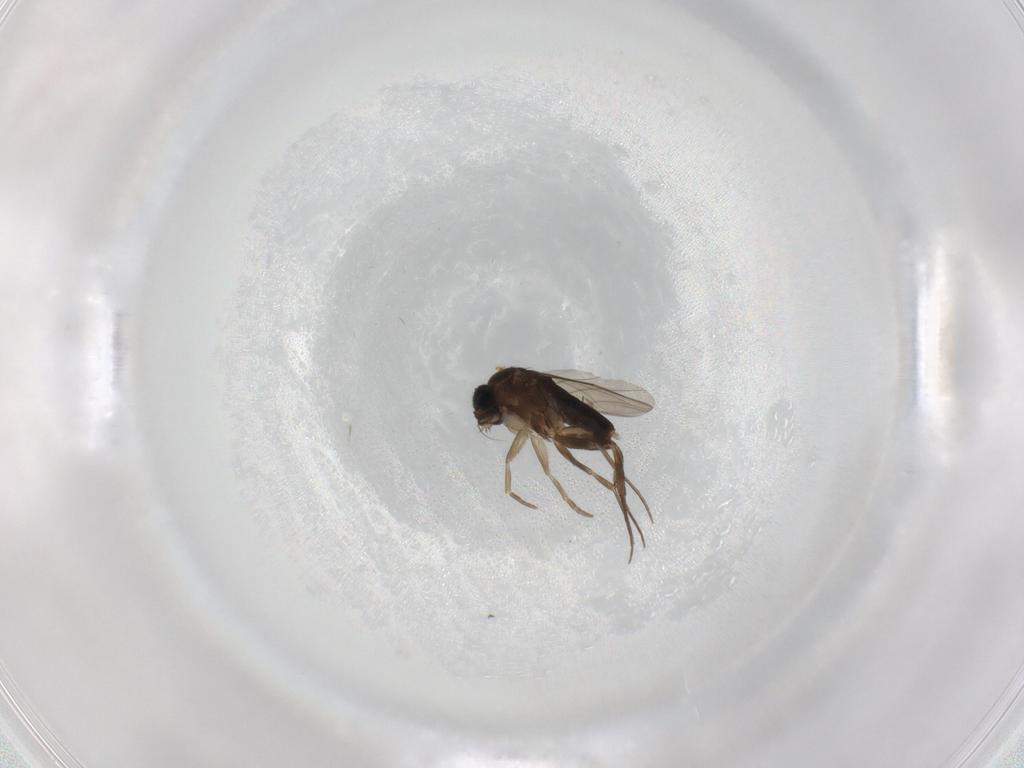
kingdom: Animalia
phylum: Arthropoda
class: Insecta
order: Diptera
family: Phoridae
